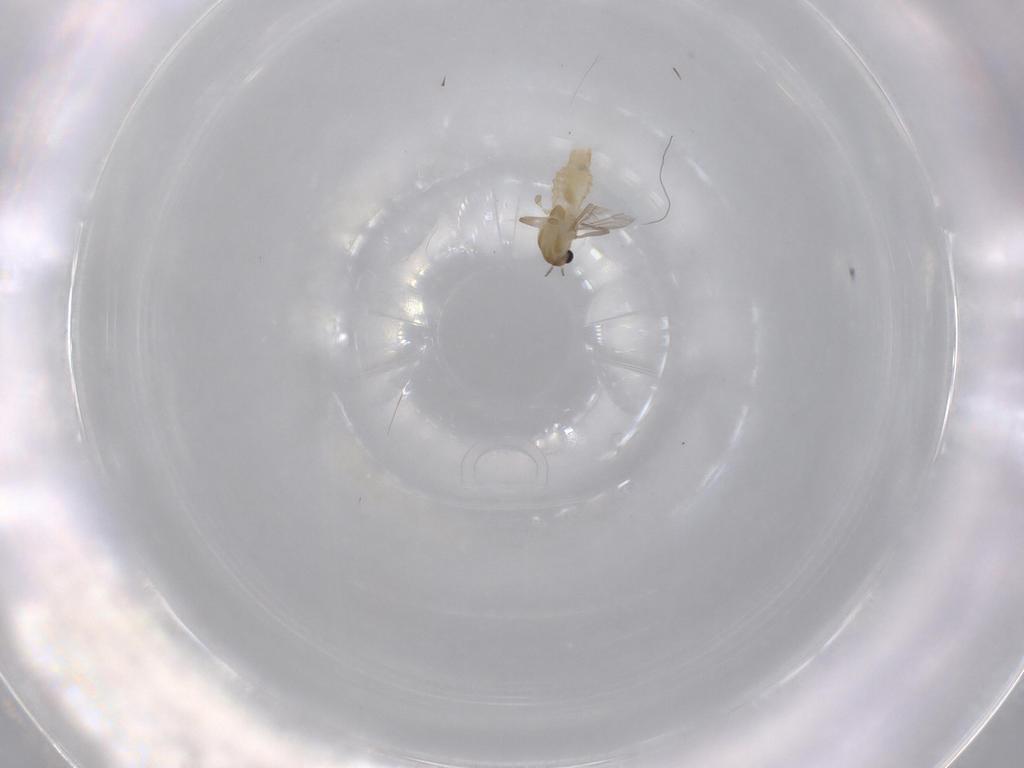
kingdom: Animalia
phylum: Arthropoda
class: Insecta
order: Diptera
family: Chironomidae
